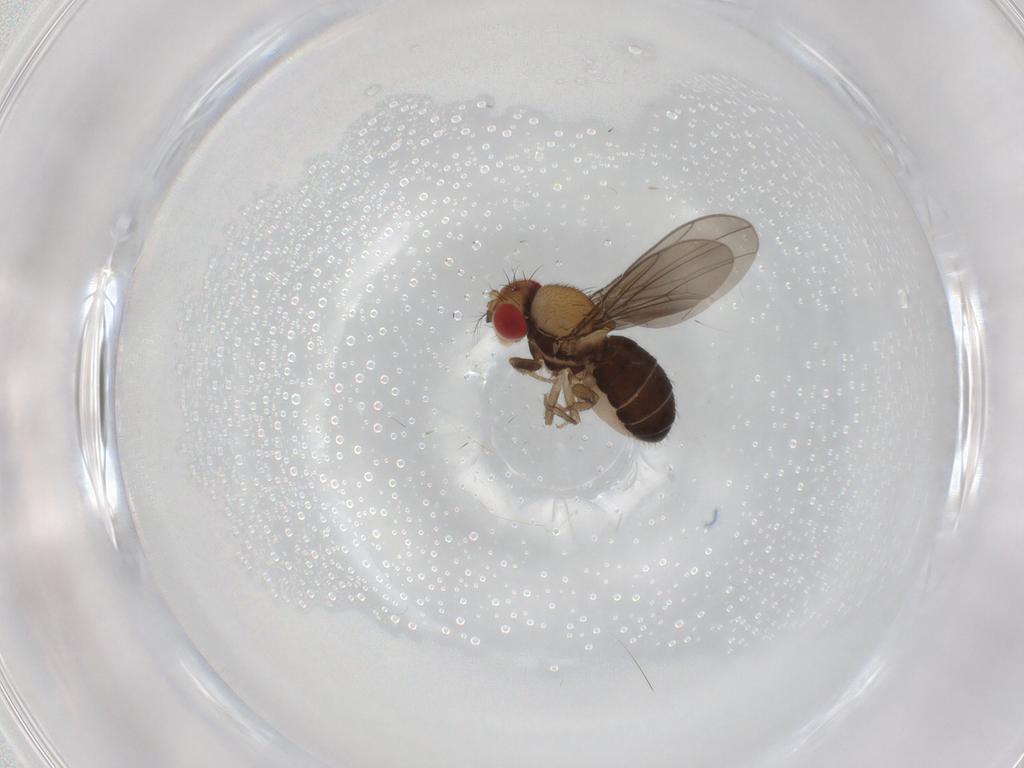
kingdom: Animalia
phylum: Arthropoda
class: Insecta
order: Diptera
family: Drosophilidae
